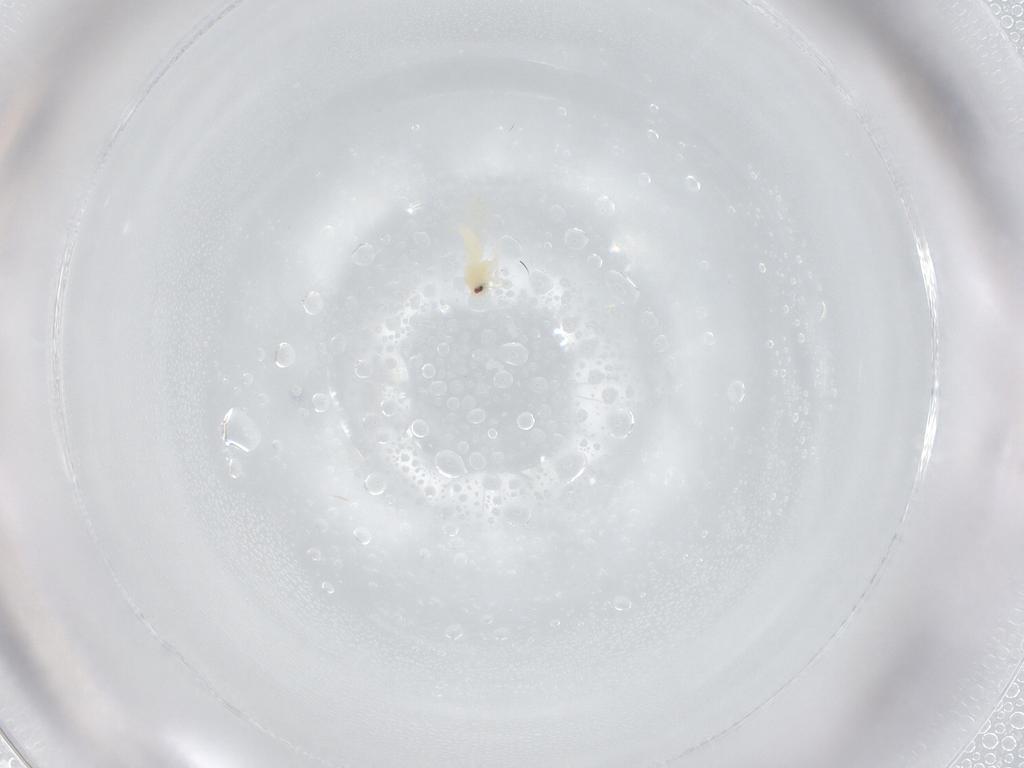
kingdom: Animalia
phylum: Arthropoda
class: Insecta
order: Hemiptera
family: Aleyrodidae
